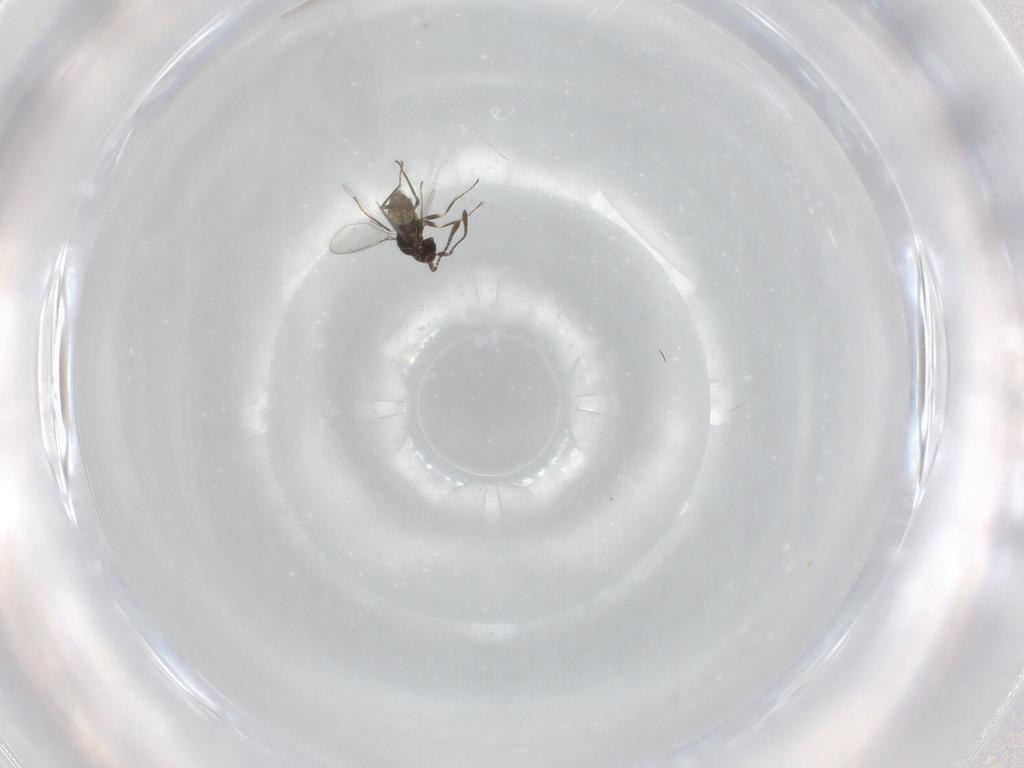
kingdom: Animalia
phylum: Arthropoda
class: Insecta
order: Hymenoptera
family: Mymaridae
